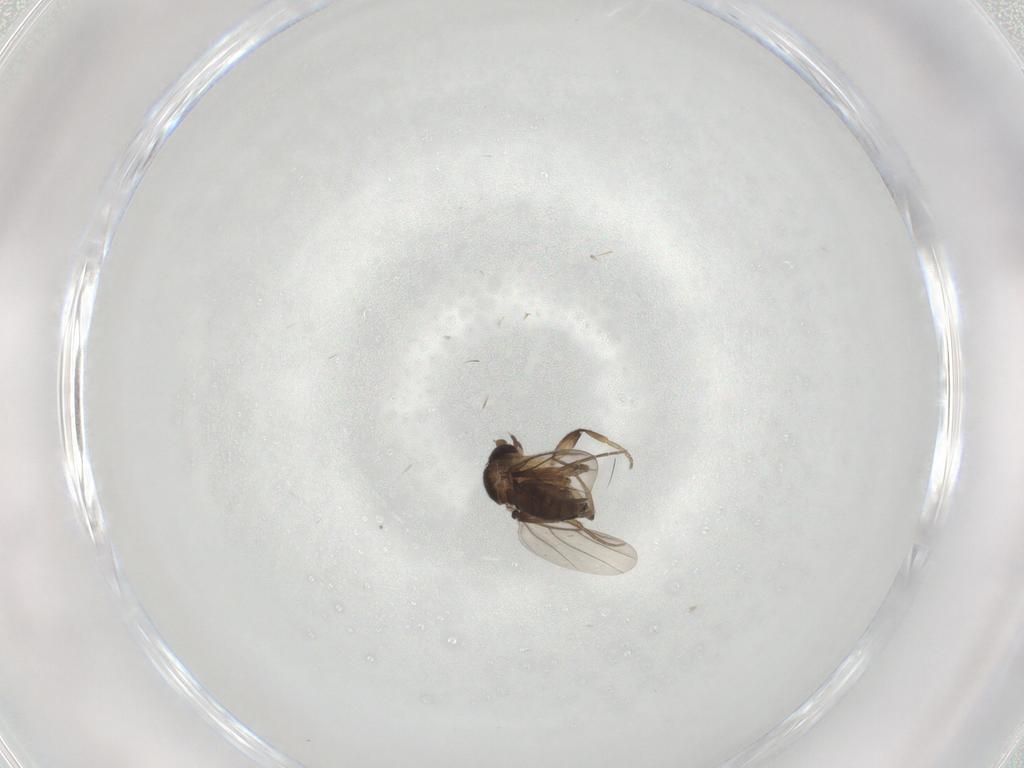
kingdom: Animalia
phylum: Arthropoda
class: Insecta
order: Diptera
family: Phoridae
